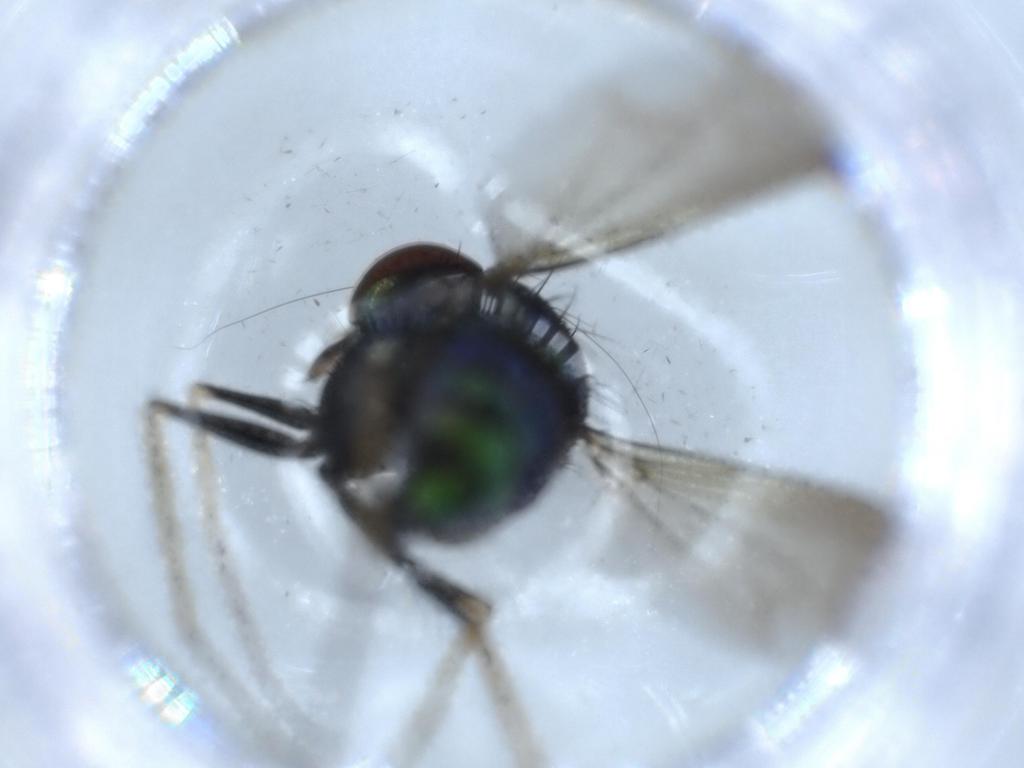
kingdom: Animalia
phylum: Arthropoda
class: Insecta
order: Diptera
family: Dolichopodidae
